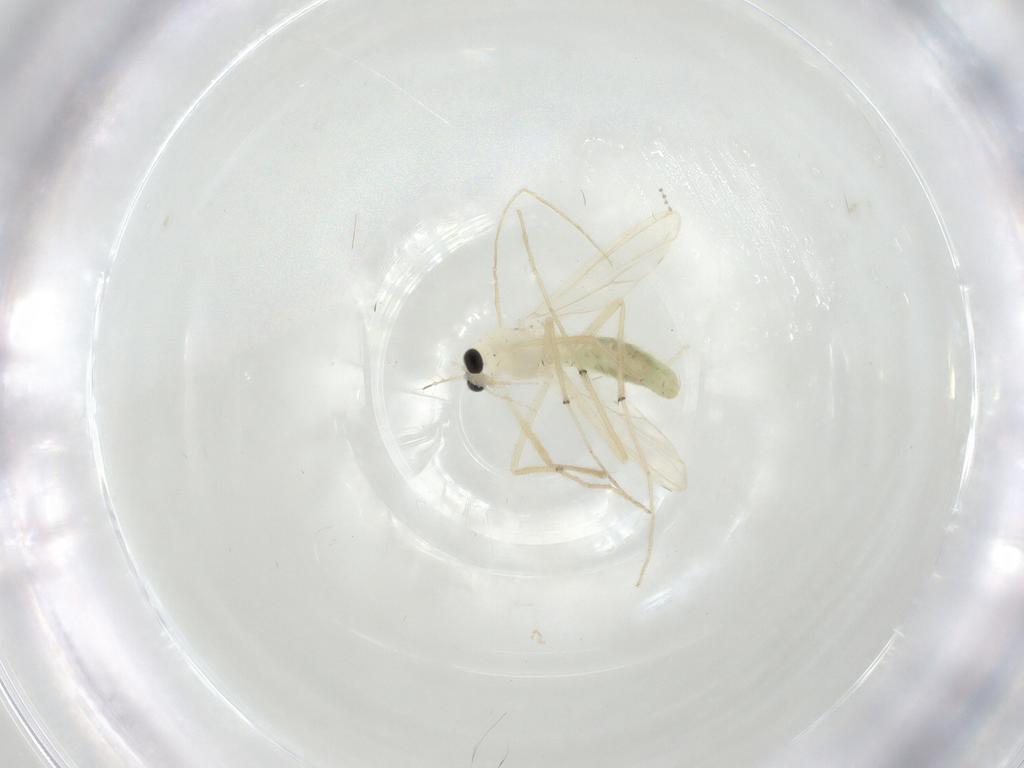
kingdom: Animalia
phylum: Arthropoda
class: Insecta
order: Diptera
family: Chironomidae
